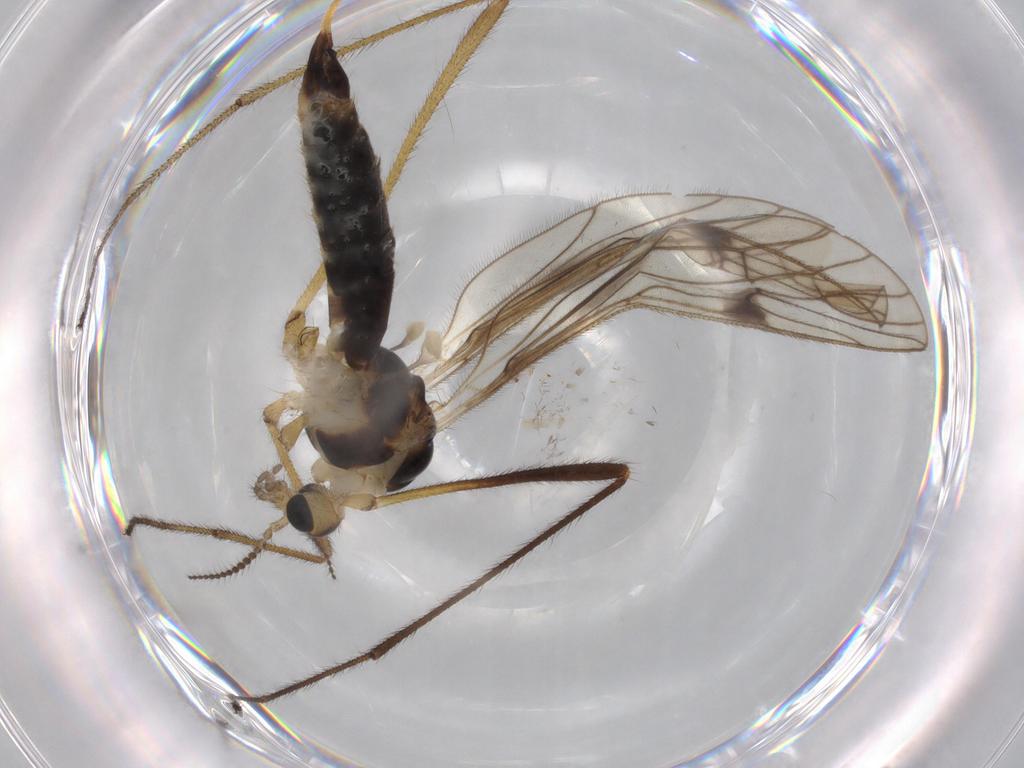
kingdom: Animalia
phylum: Arthropoda
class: Insecta
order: Diptera
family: Limoniidae
